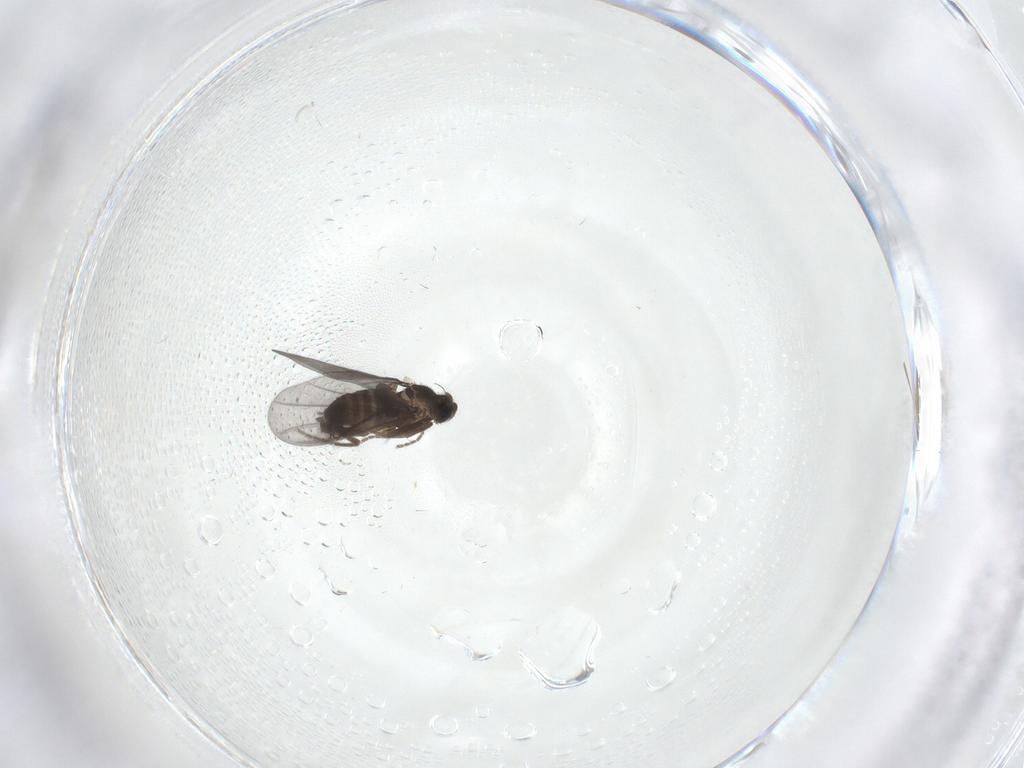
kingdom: Animalia
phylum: Arthropoda
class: Insecta
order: Diptera
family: Phoridae
